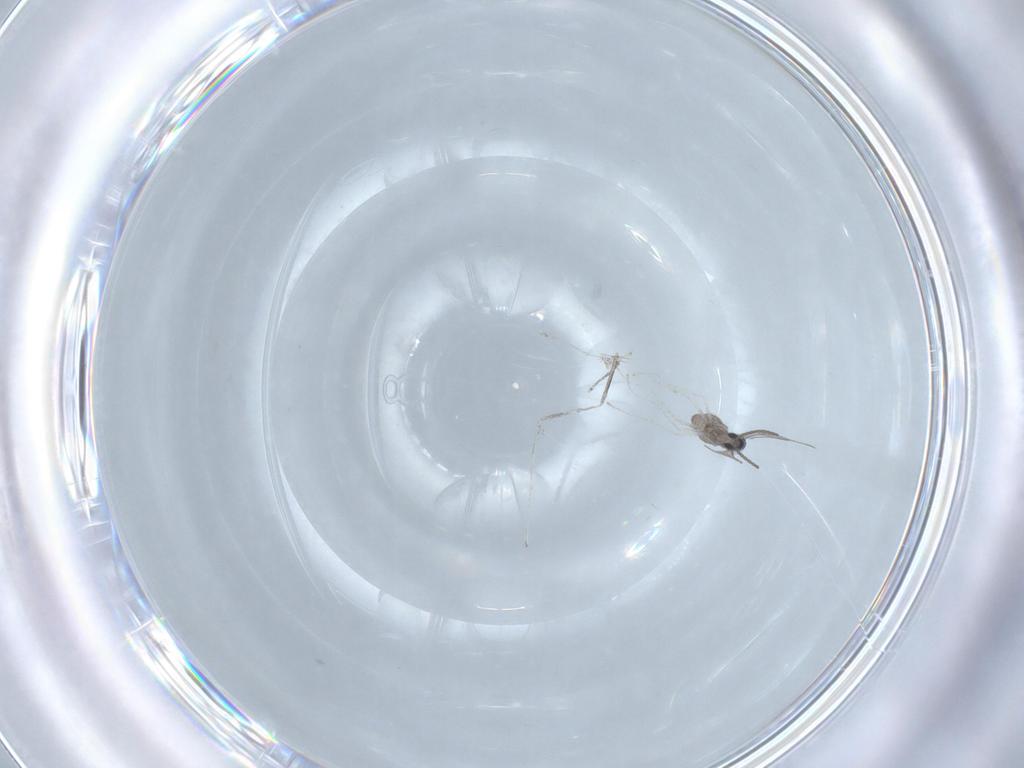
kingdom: Animalia
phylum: Arthropoda
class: Insecta
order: Diptera
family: Cecidomyiidae
